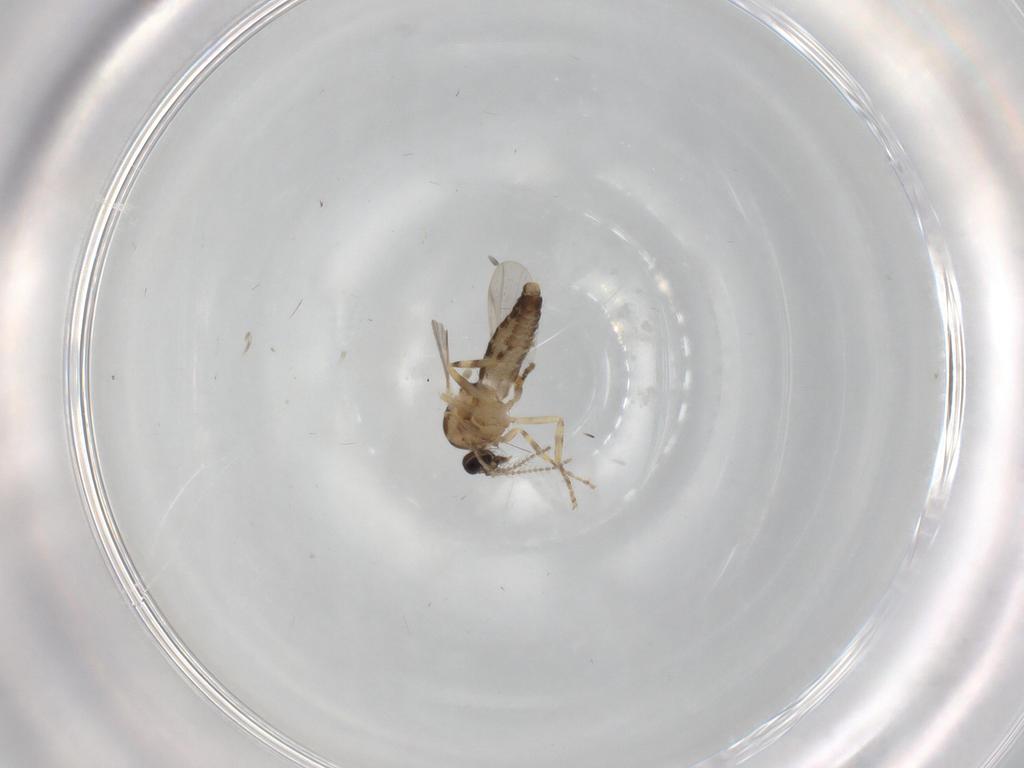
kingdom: Animalia
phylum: Arthropoda
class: Insecta
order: Diptera
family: Ceratopogonidae
